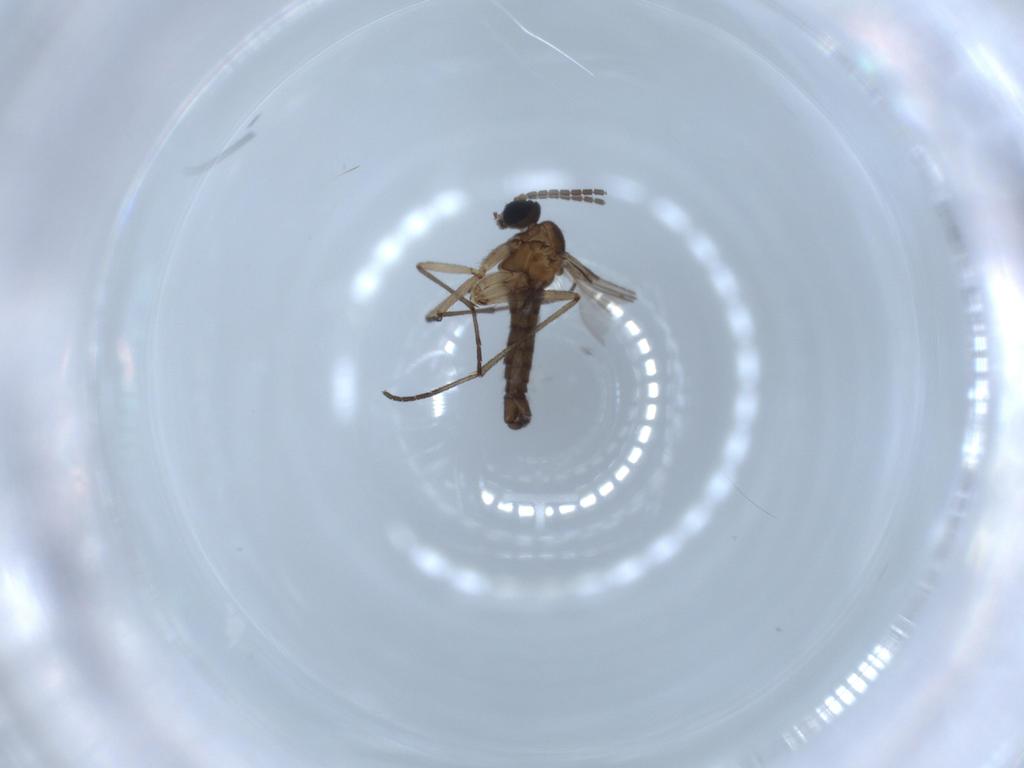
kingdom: Animalia
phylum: Arthropoda
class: Insecta
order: Diptera
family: Sciaridae
